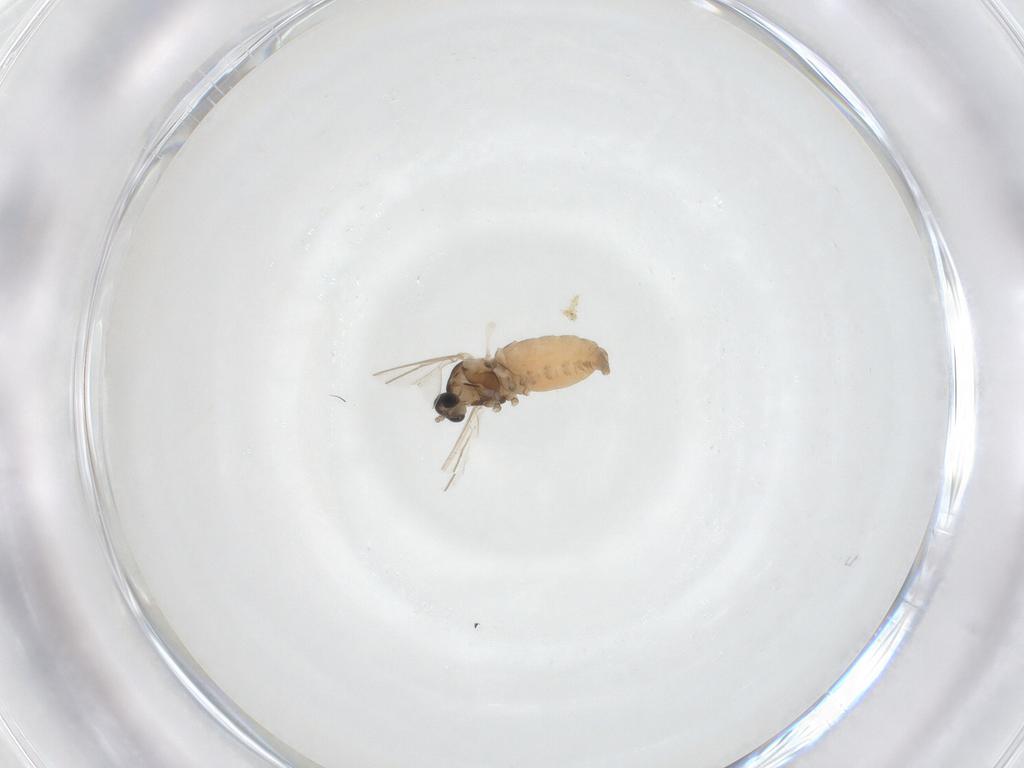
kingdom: Animalia
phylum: Arthropoda
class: Insecta
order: Diptera
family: Cecidomyiidae
